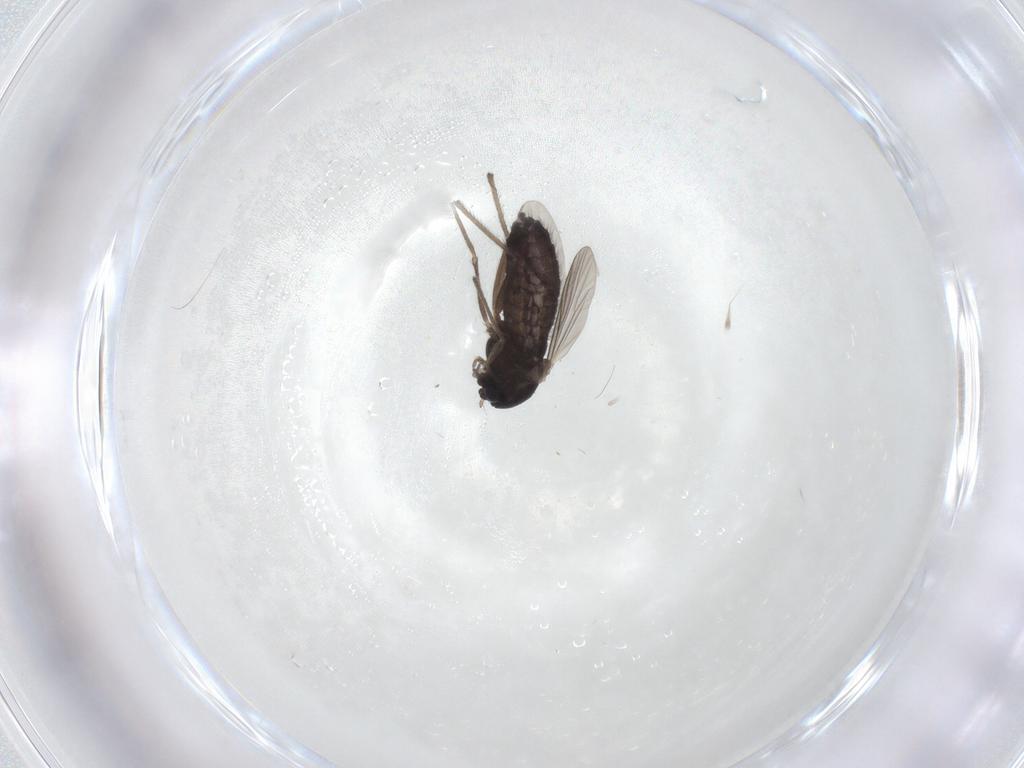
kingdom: Animalia
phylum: Arthropoda
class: Insecta
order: Diptera
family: Chironomidae
